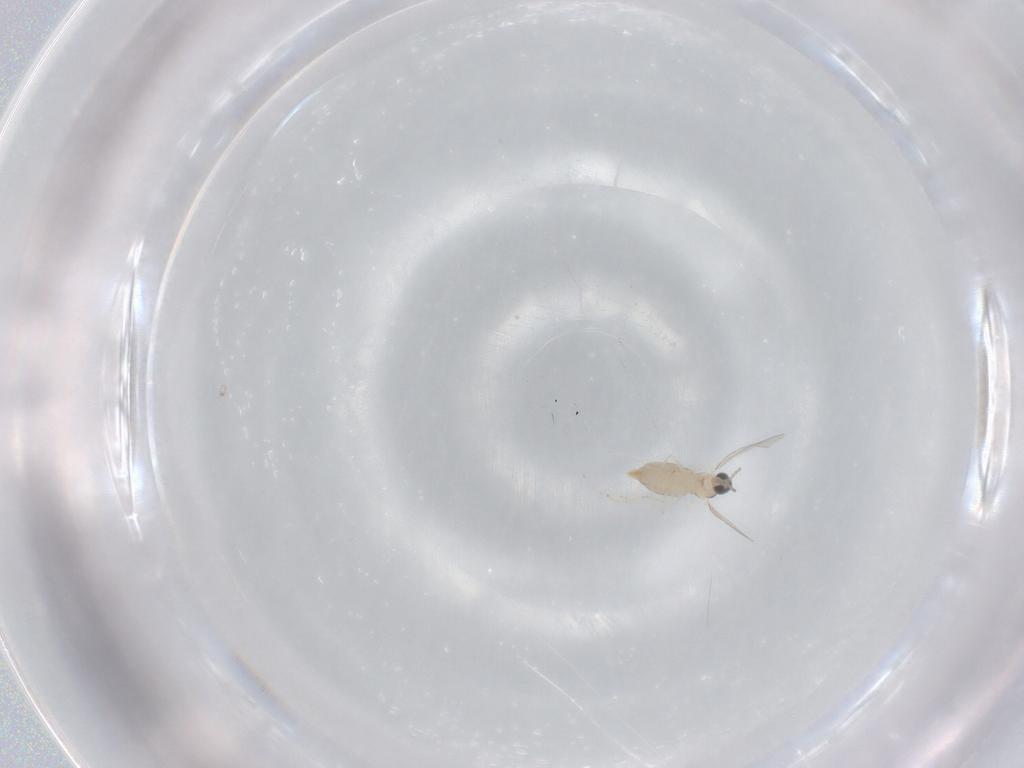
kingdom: Animalia
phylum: Arthropoda
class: Insecta
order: Diptera
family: Cecidomyiidae
